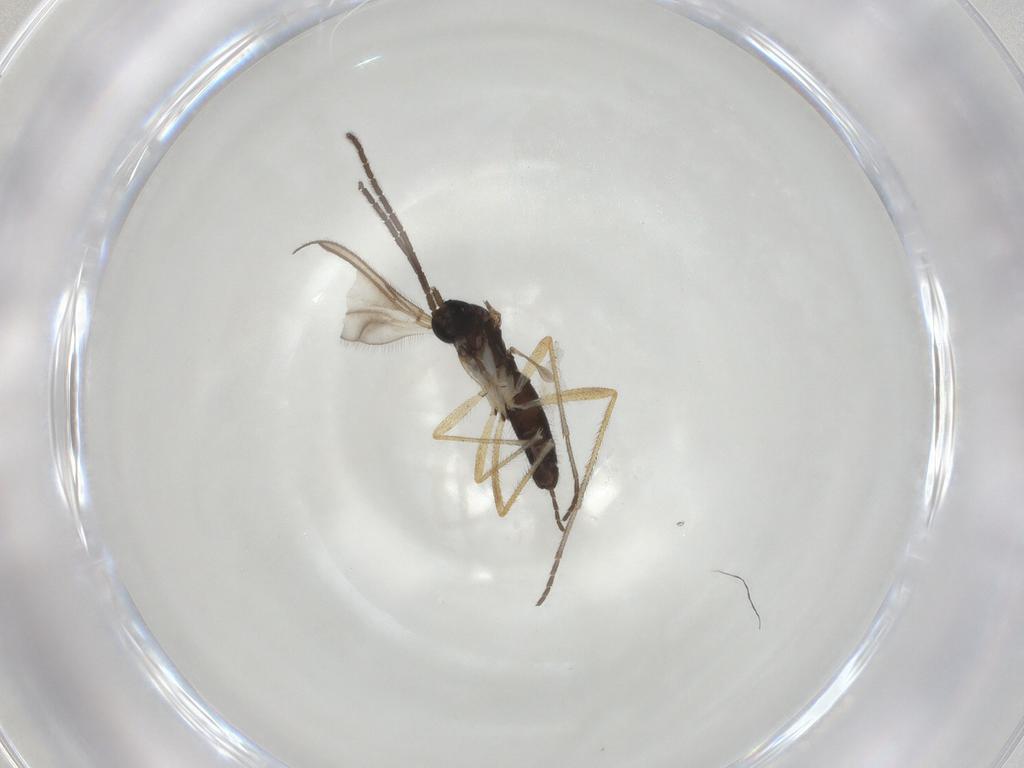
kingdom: Animalia
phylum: Arthropoda
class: Insecta
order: Diptera
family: Sciaridae
